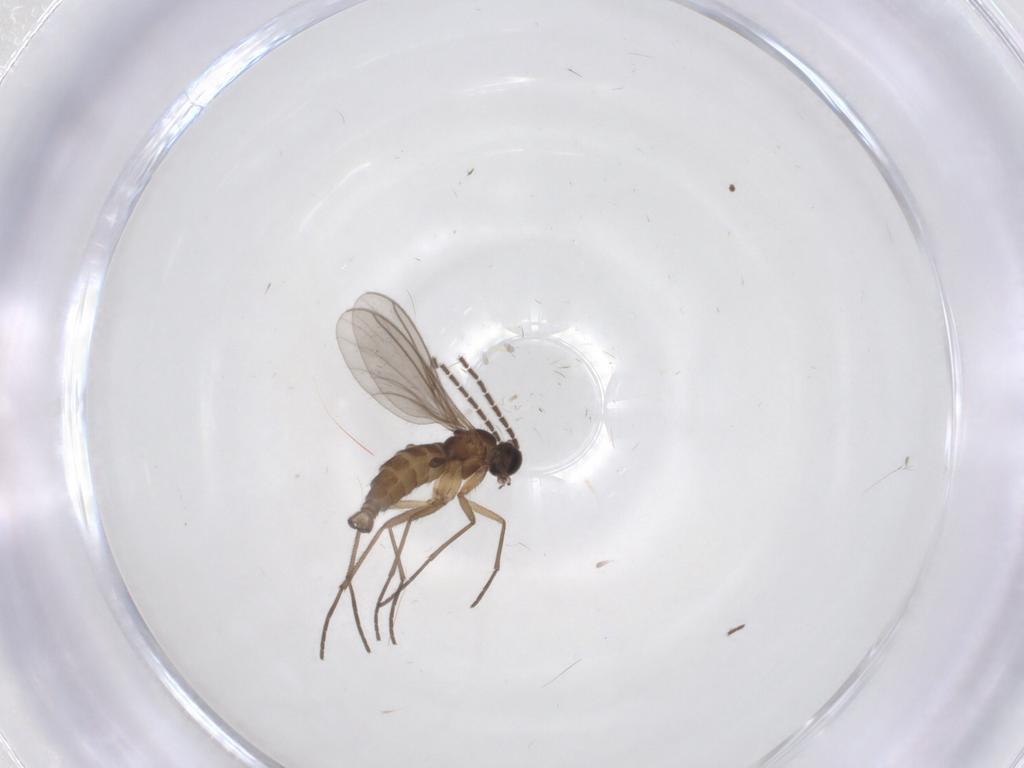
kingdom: Animalia
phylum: Arthropoda
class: Insecta
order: Diptera
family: Sciaridae
